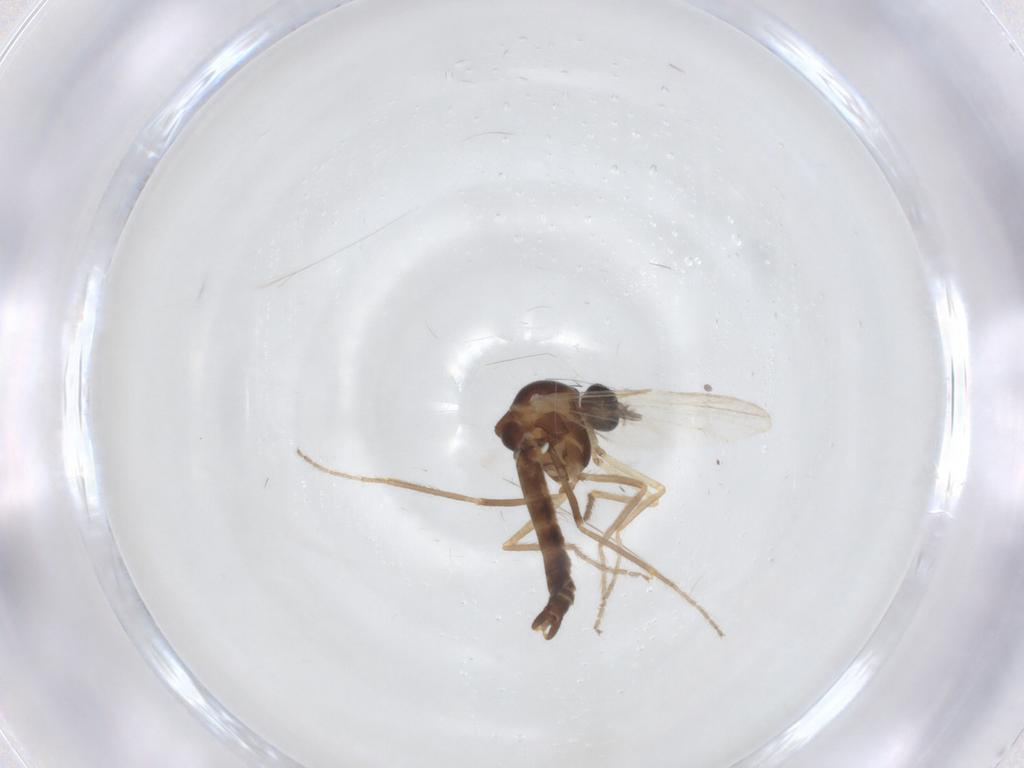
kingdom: Animalia
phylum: Arthropoda
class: Insecta
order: Diptera
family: Ceratopogonidae
